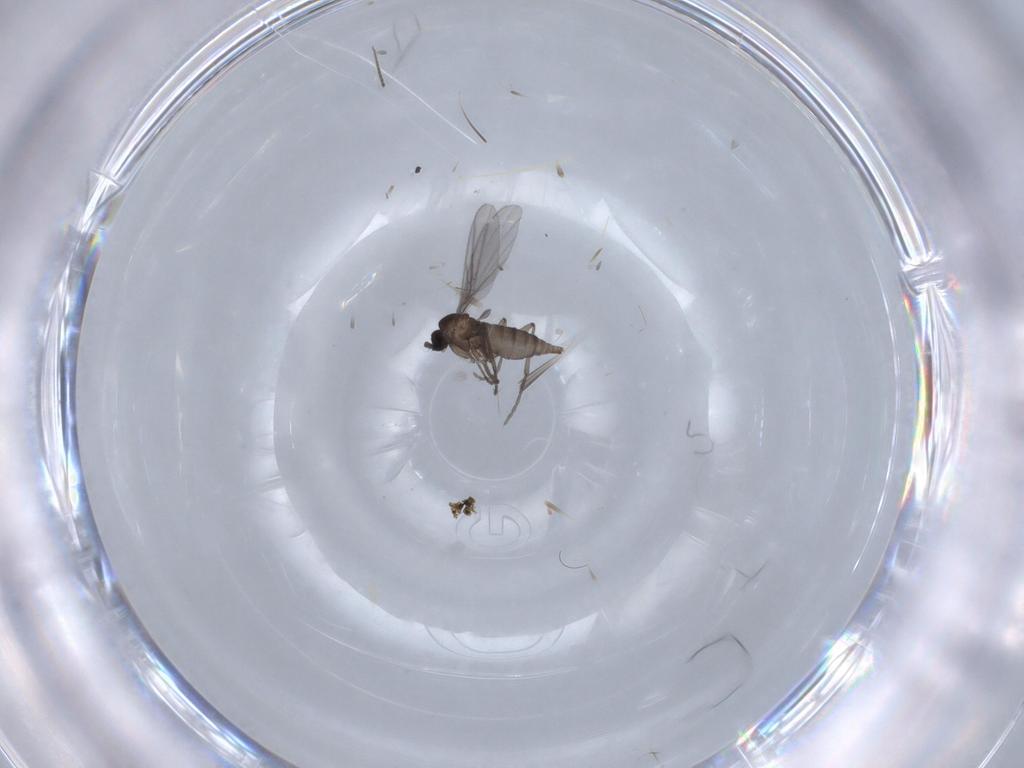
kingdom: Animalia
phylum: Arthropoda
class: Insecta
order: Diptera
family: Sciaridae
